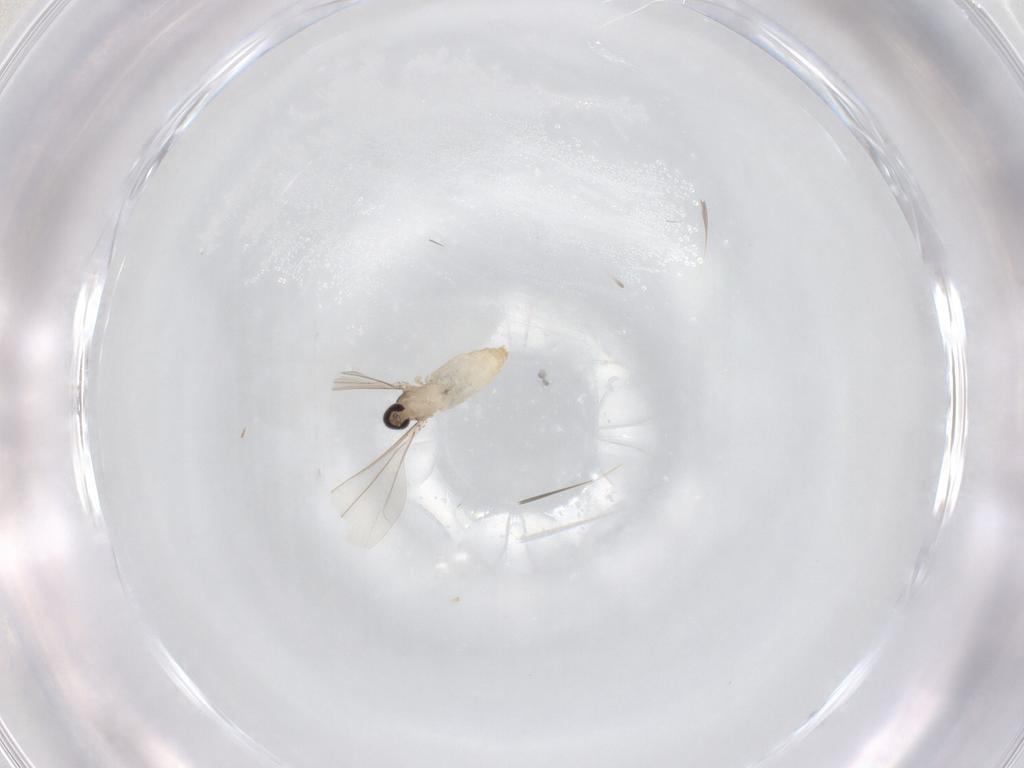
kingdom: Animalia
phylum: Arthropoda
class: Insecta
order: Diptera
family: Cecidomyiidae
